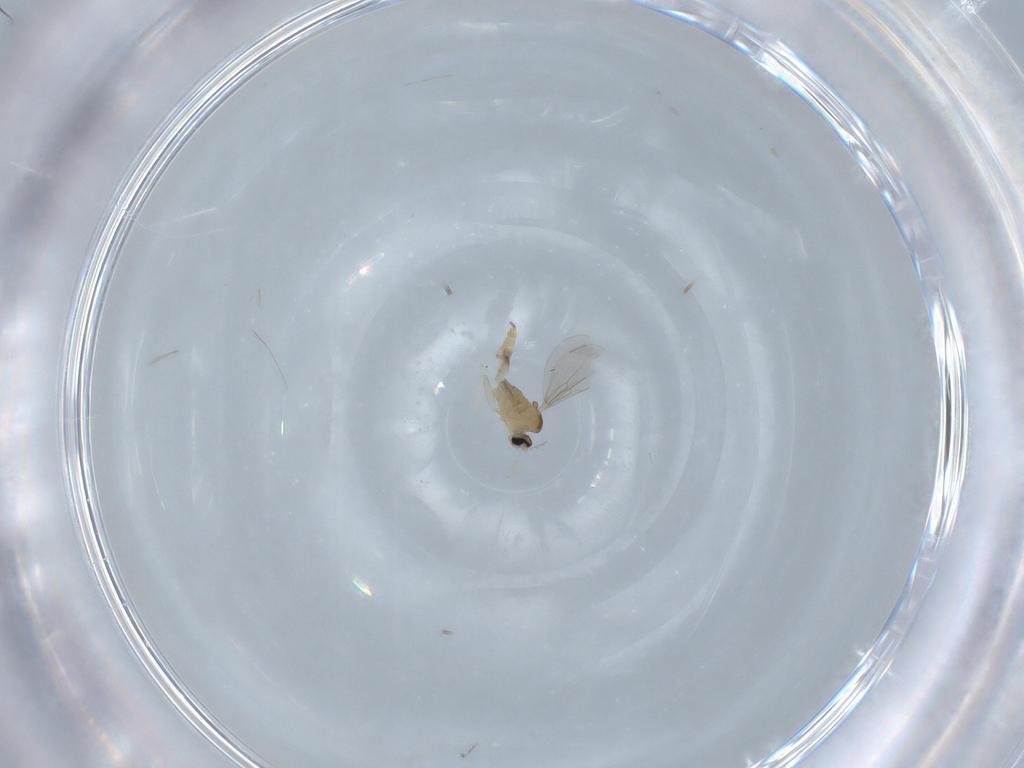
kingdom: Animalia
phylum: Arthropoda
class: Insecta
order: Diptera
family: Cecidomyiidae
